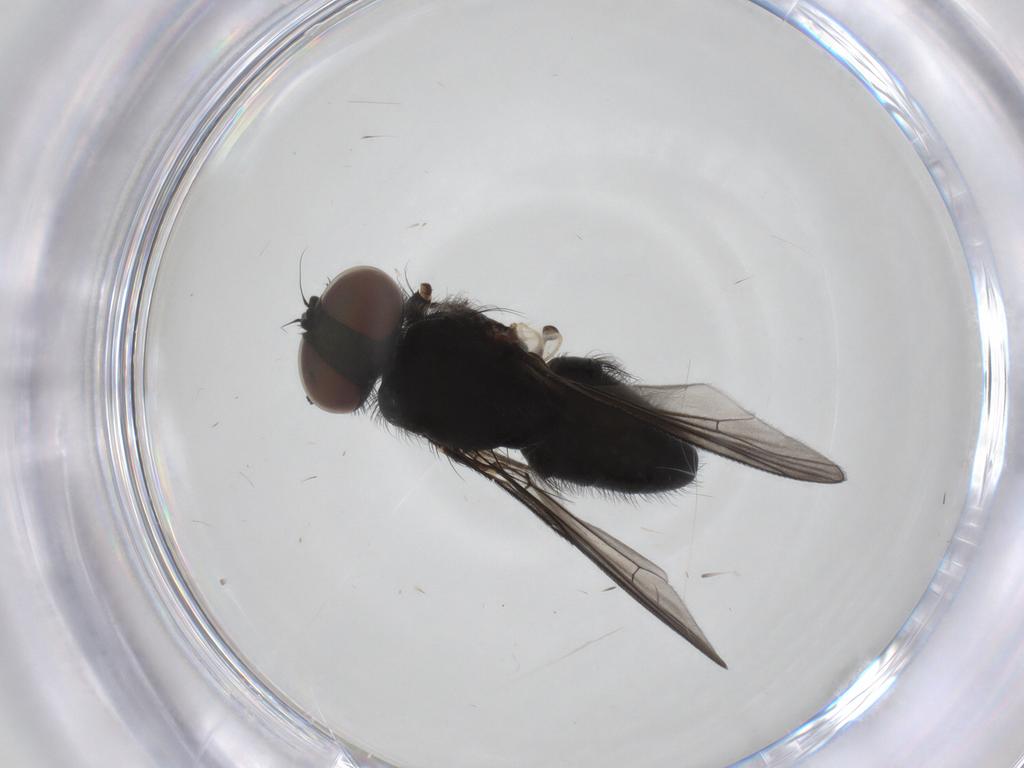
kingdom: Animalia
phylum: Arthropoda
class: Insecta
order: Diptera
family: Muscidae
